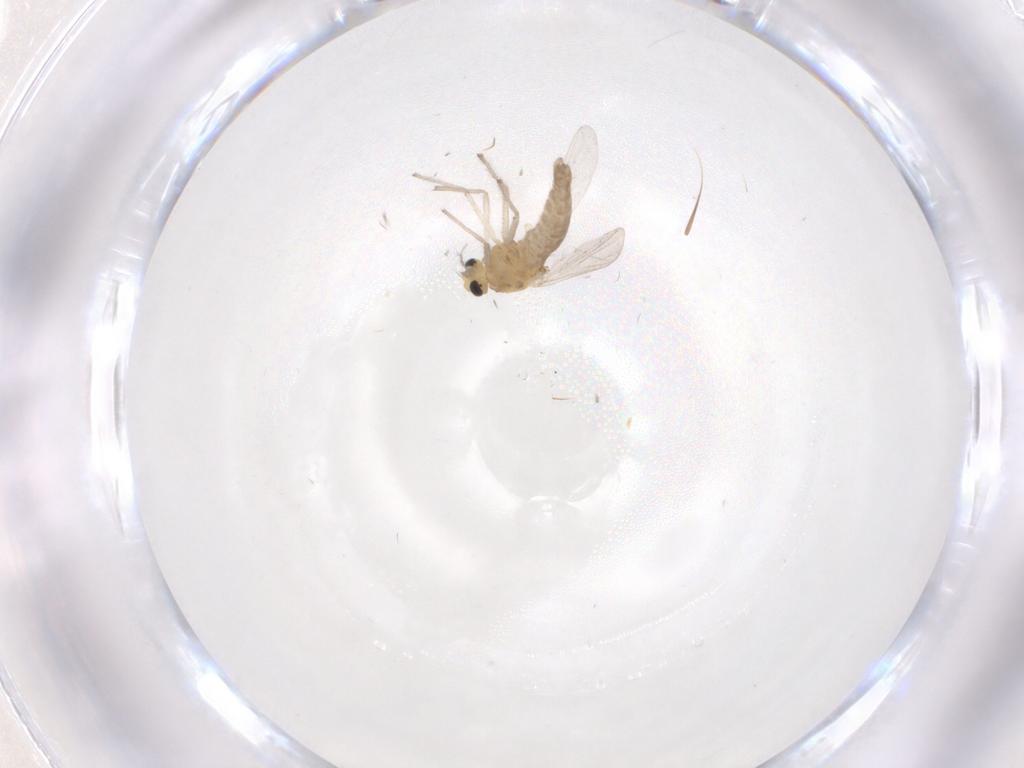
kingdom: Animalia
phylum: Arthropoda
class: Insecta
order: Diptera
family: Chironomidae
